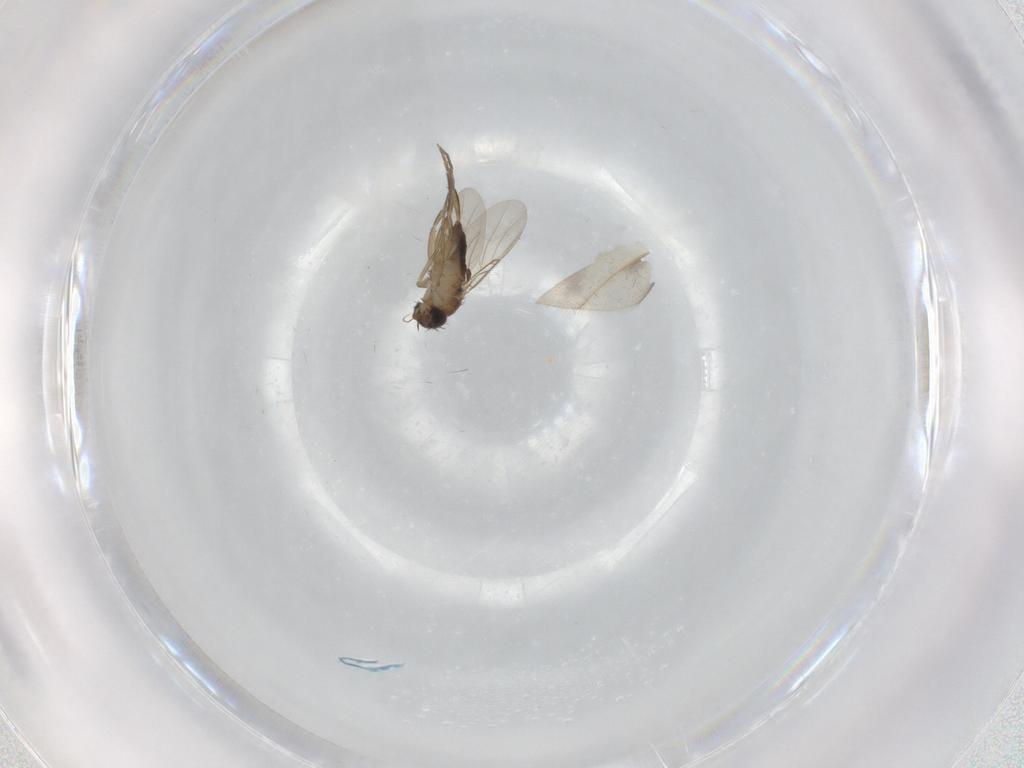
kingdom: Animalia
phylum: Arthropoda
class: Insecta
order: Diptera
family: Phoridae
